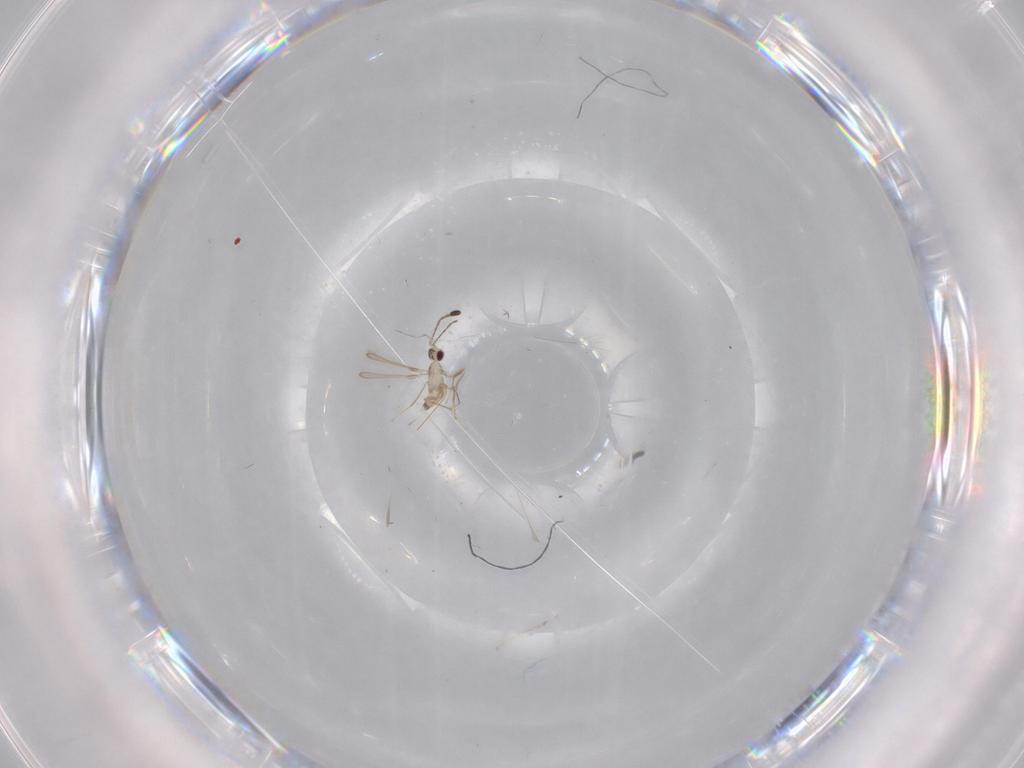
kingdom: Animalia
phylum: Arthropoda
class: Insecta
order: Hymenoptera
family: Mymaridae
